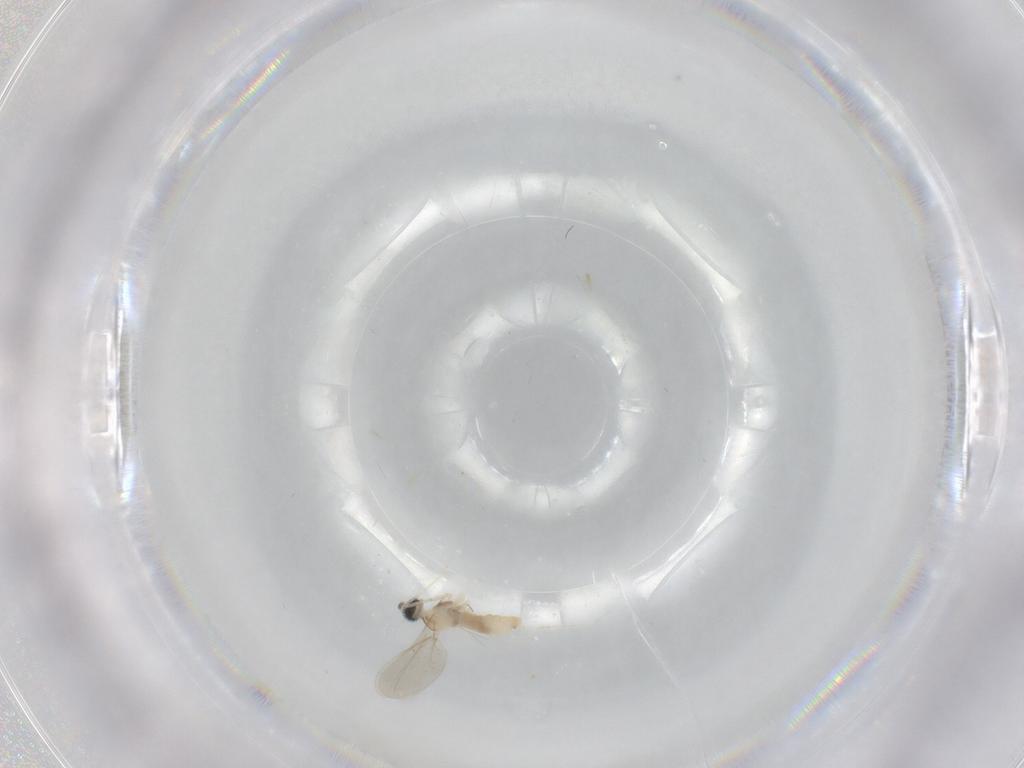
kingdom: Animalia
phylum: Arthropoda
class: Insecta
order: Diptera
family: Cecidomyiidae
